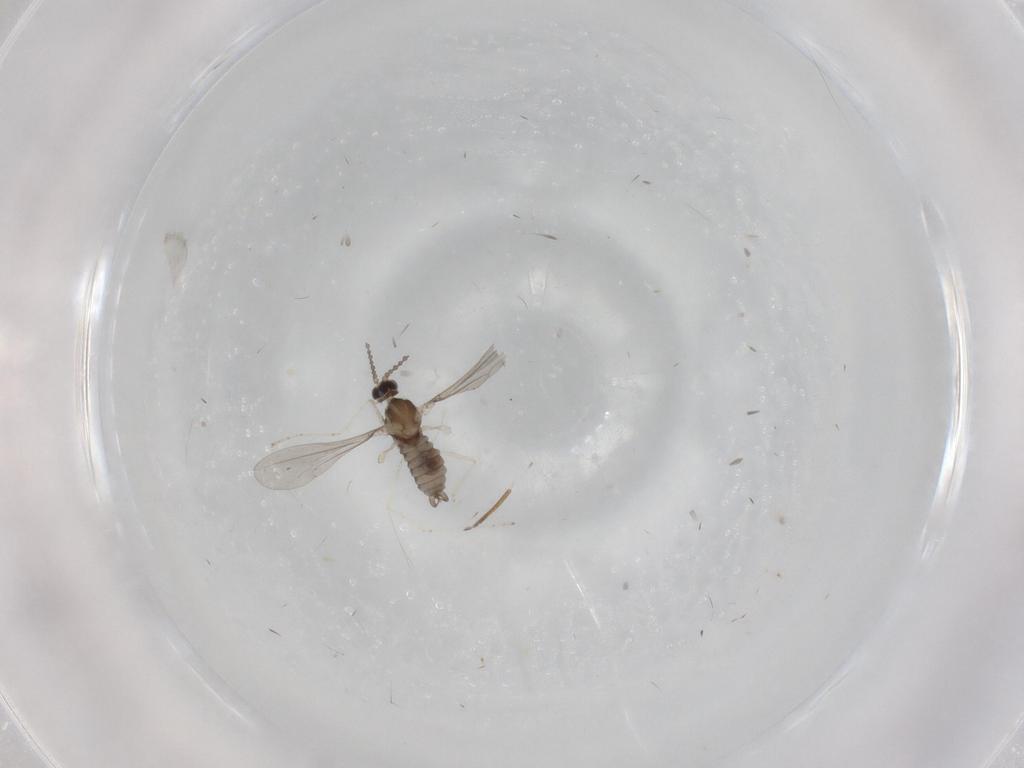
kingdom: Animalia
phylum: Arthropoda
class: Insecta
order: Diptera
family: Ceratopogonidae
